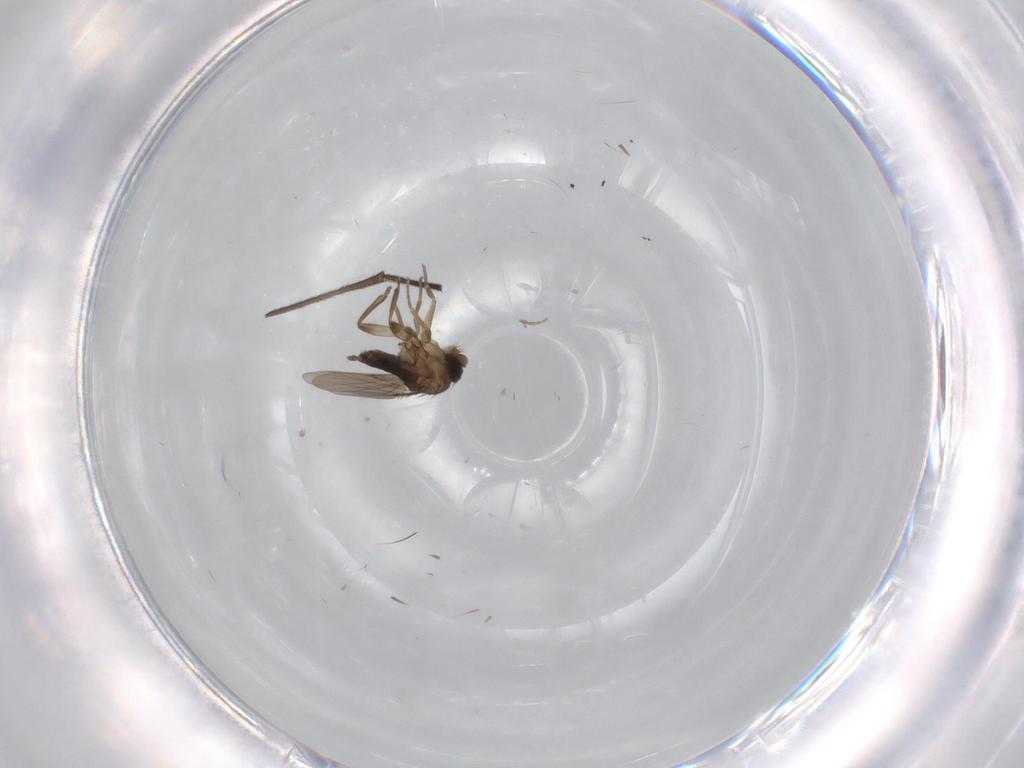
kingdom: Animalia
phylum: Arthropoda
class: Insecta
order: Diptera
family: Phoridae
